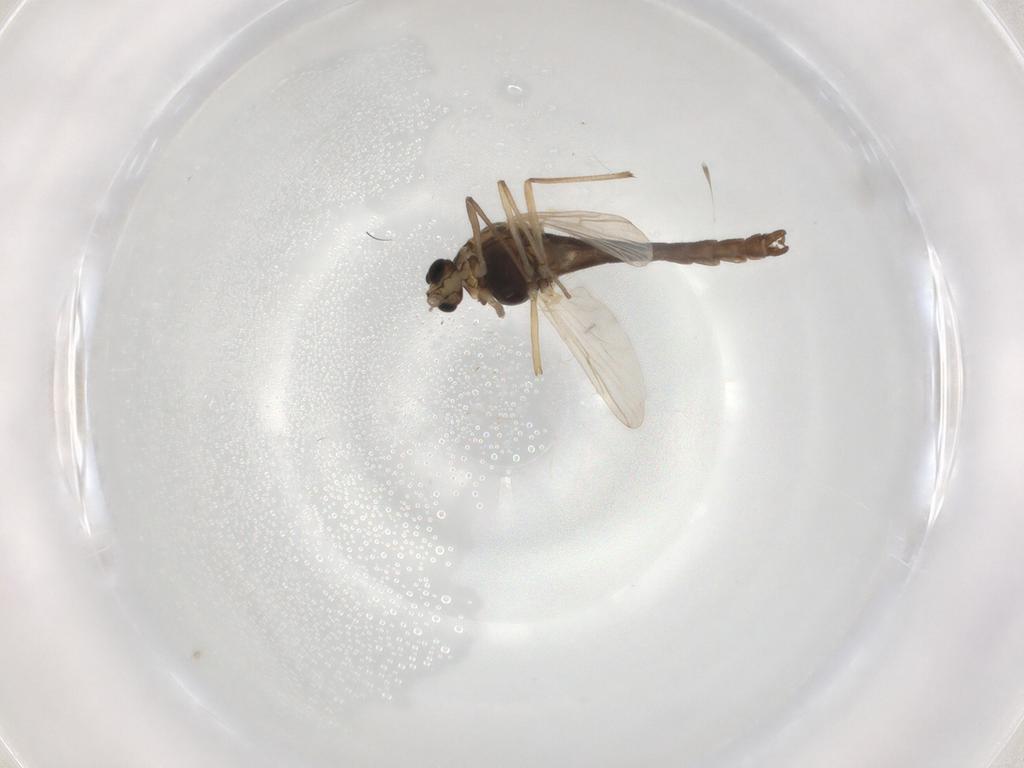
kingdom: Animalia
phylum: Arthropoda
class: Insecta
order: Diptera
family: Chironomidae
